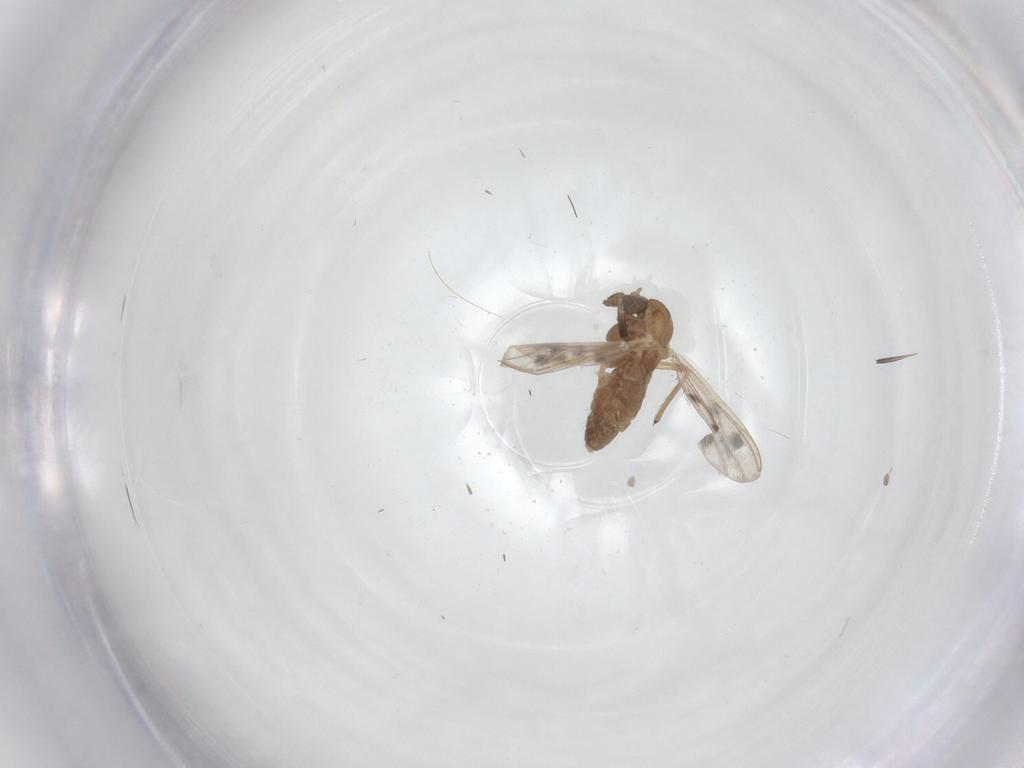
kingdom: Animalia
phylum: Arthropoda
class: Insecta
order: Diptera
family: Chironomidae
